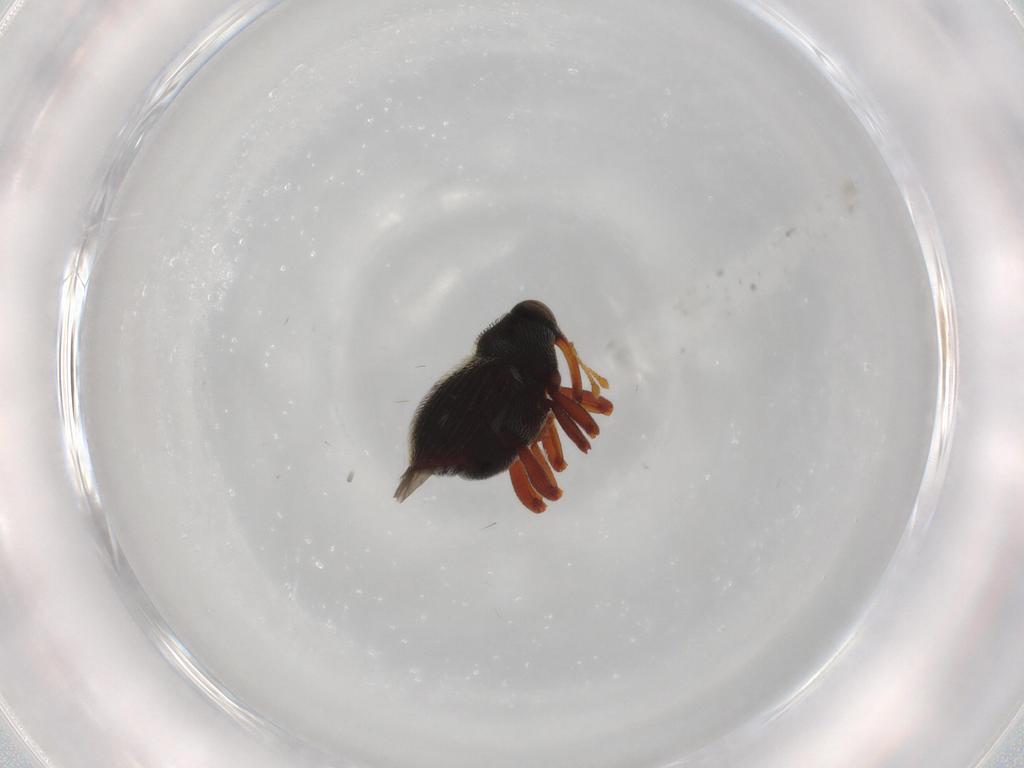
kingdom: Animalia
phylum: Arthropoda
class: Insecta
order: Coleoptera
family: Curculionidae
